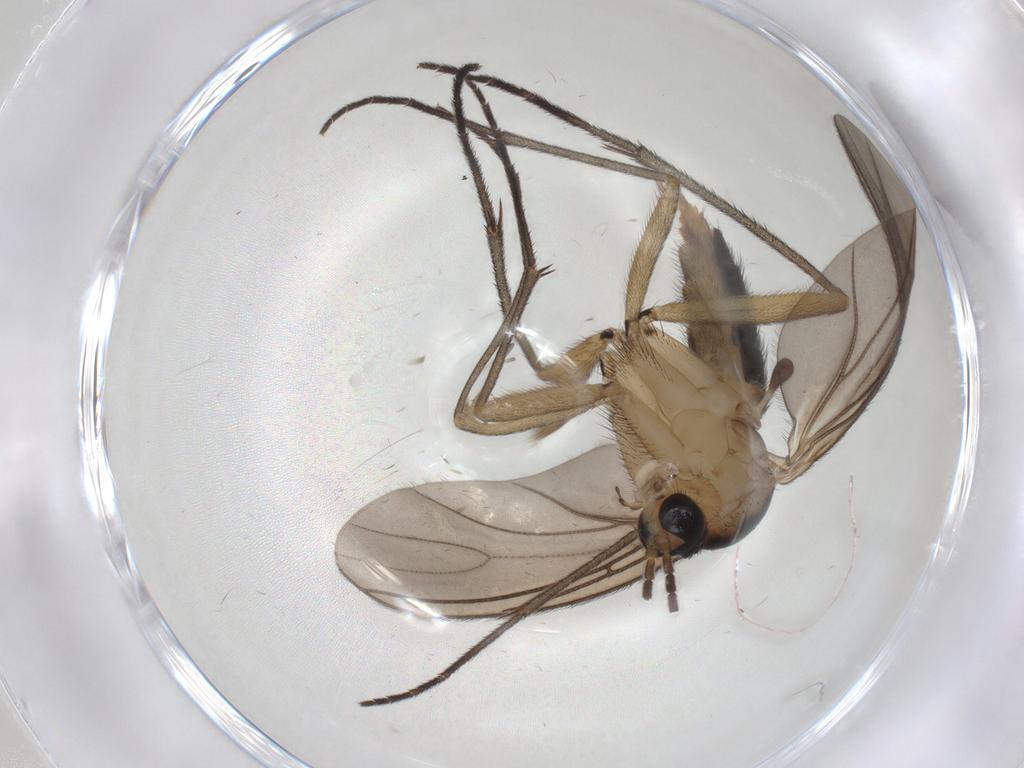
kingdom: Animalia
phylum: Arthropoda
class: Insecta
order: Diptera
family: Sciaridae
